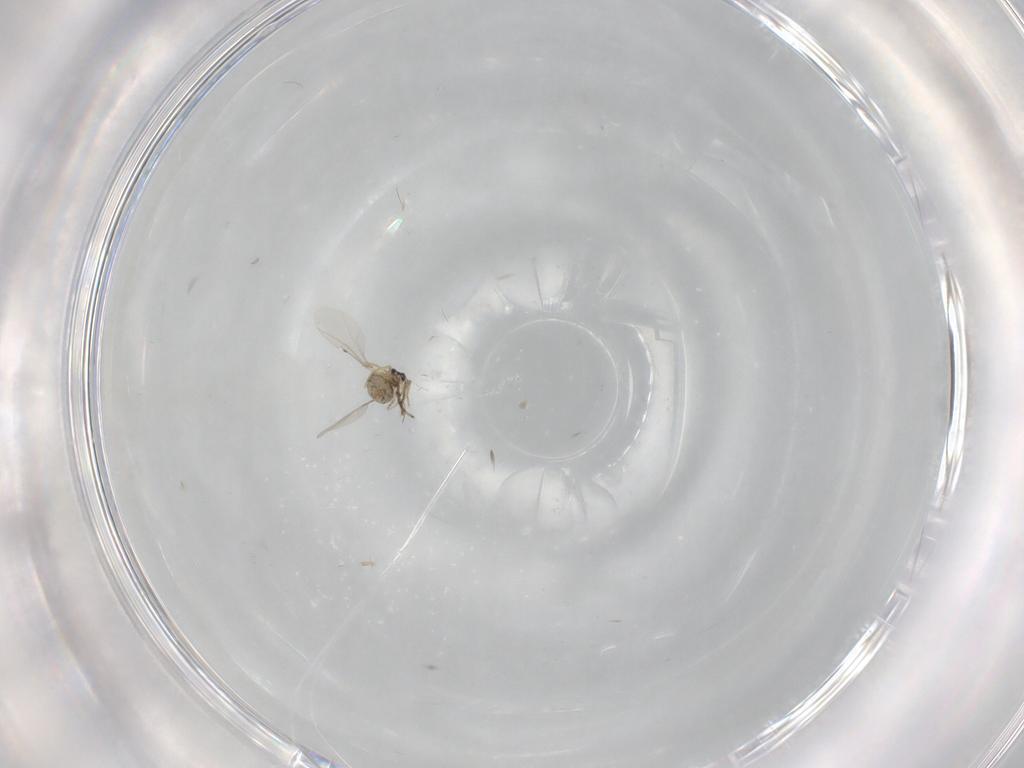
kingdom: Animalia
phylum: Arthropoda
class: Insecta
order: Diptera
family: Cecidomyiidae
